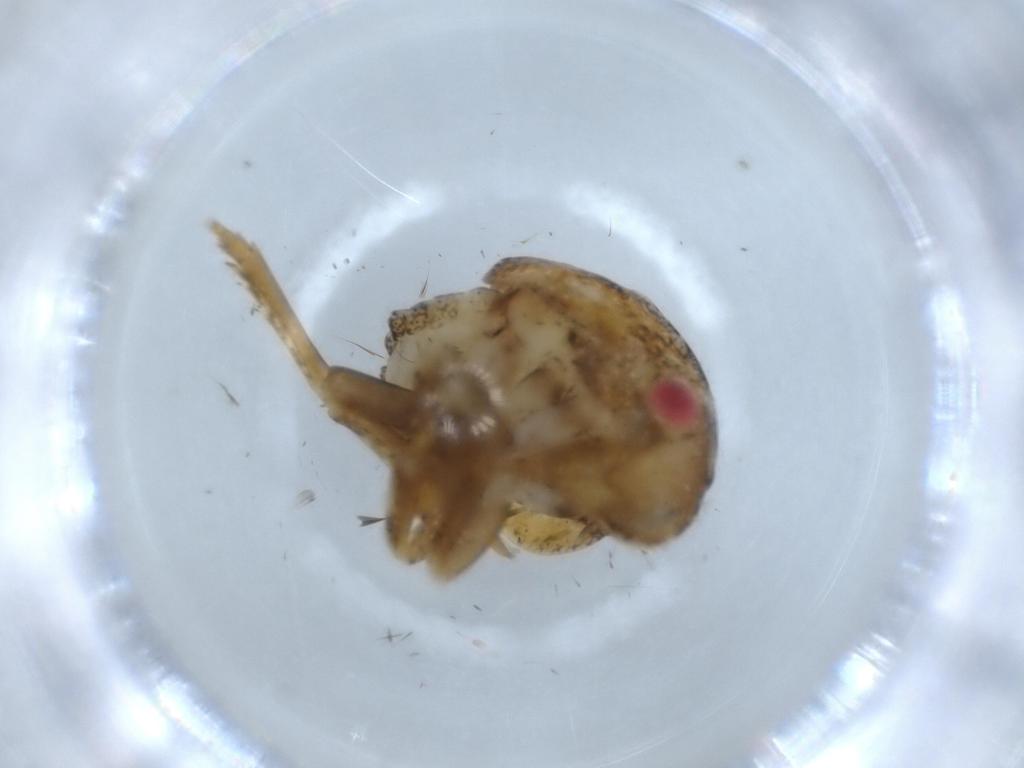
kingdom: Animalia
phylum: Arthropoda
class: Insecta
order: Hemiptera
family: Acanaloniidae
